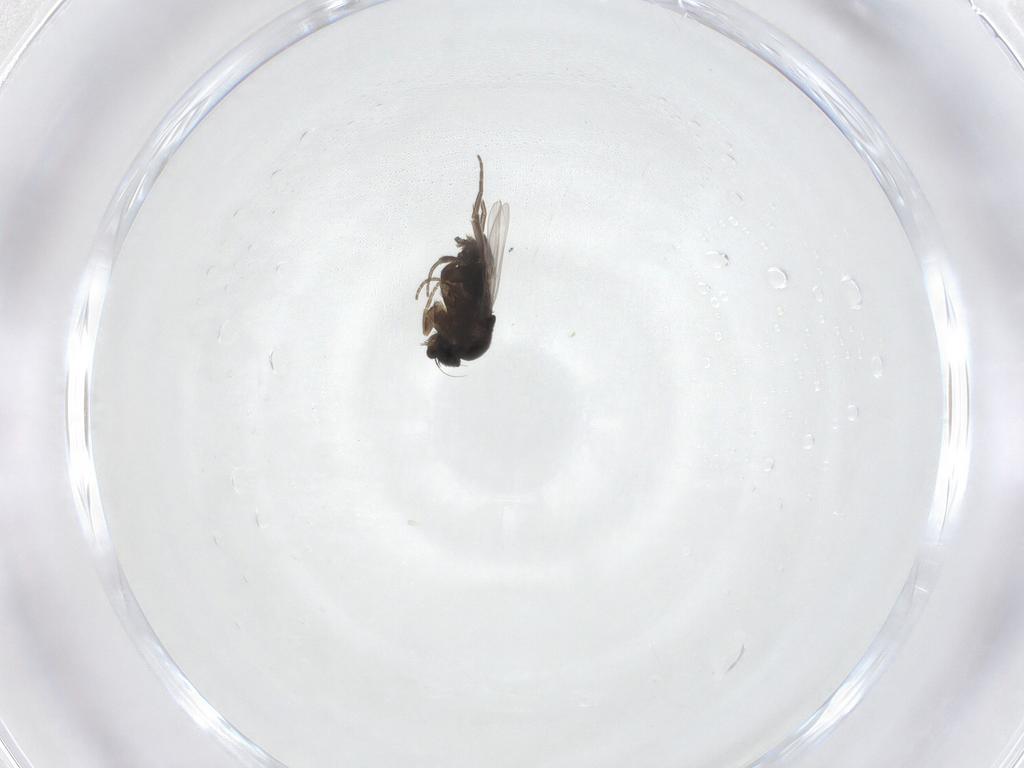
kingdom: Animalia
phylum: Arthropoda
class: Insecta
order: Diptera
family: Phoridae
